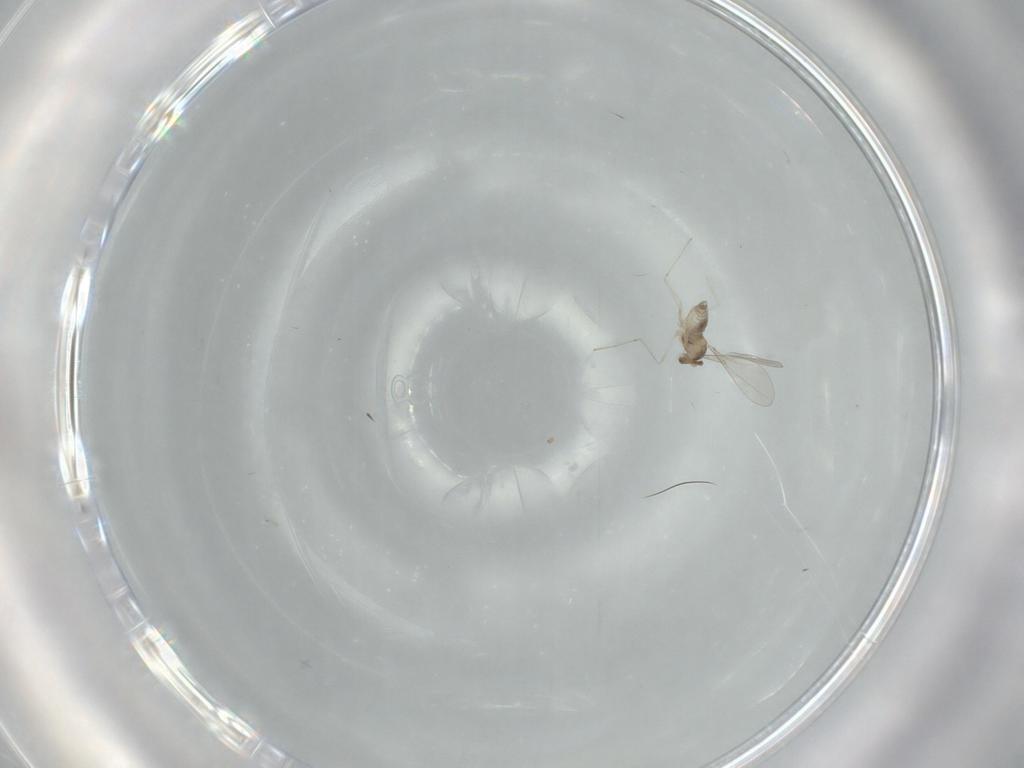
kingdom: Animalia
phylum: Arthropoda
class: Insecta
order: Diptera
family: Cecidomyiidae
